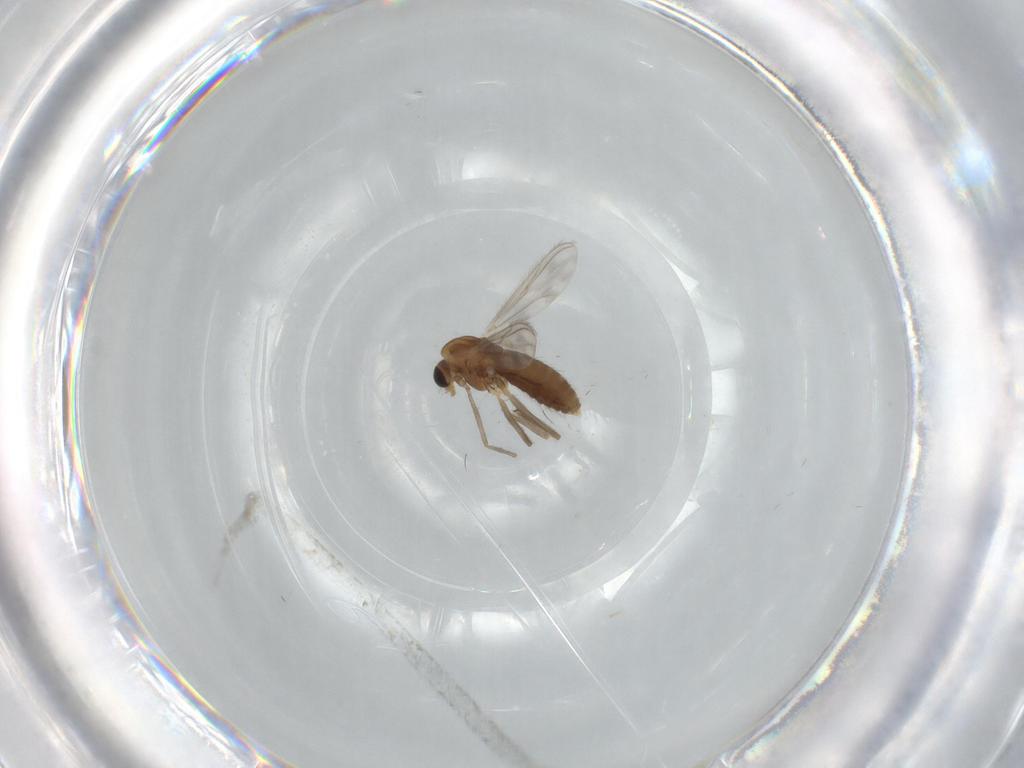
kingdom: Animalia
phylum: Arthropoda
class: Insecta
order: Diptera
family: Chironomidae
